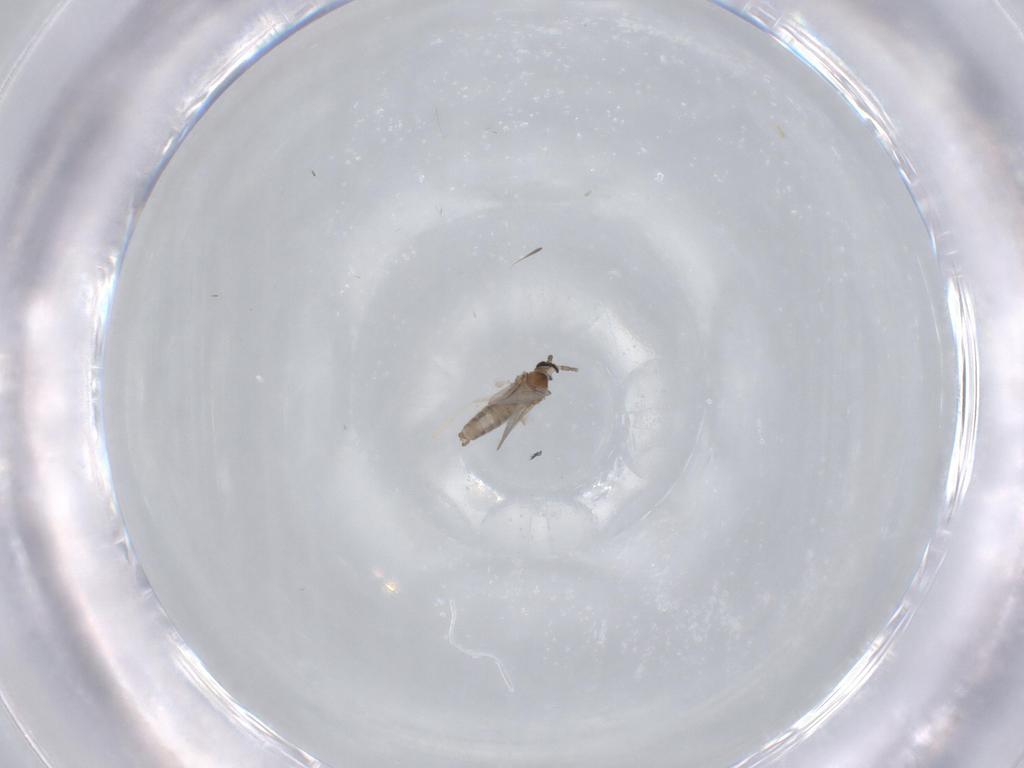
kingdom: Animalia
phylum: Arthropoda
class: Insecta
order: Diptera
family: Cecidomyiidae
